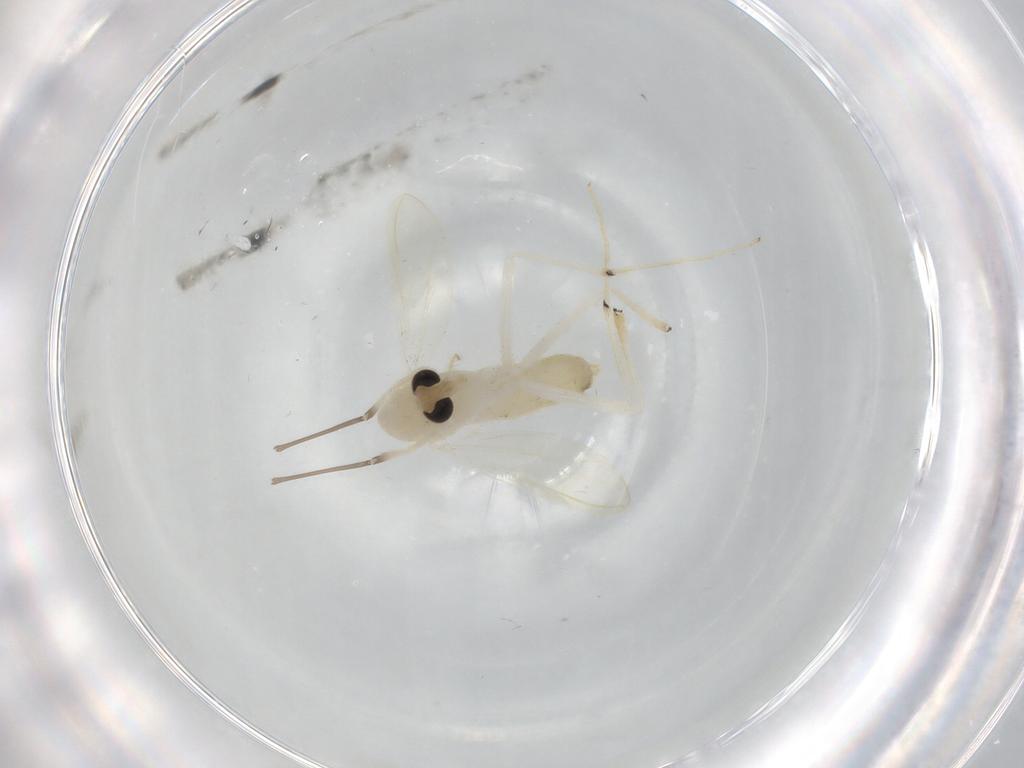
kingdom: Animalia
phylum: Arthropoda
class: Insecta
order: Diptera
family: Chironomidae
